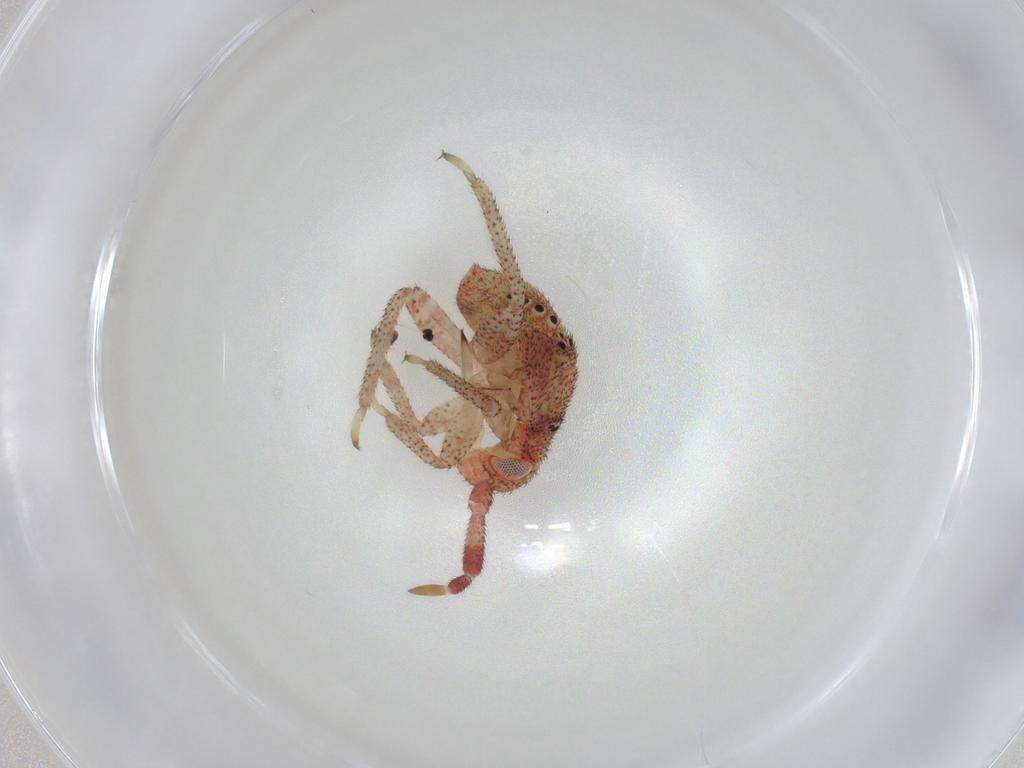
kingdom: Animalia
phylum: Arthropoda
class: Insecta
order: Hemiptera
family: Miridae
